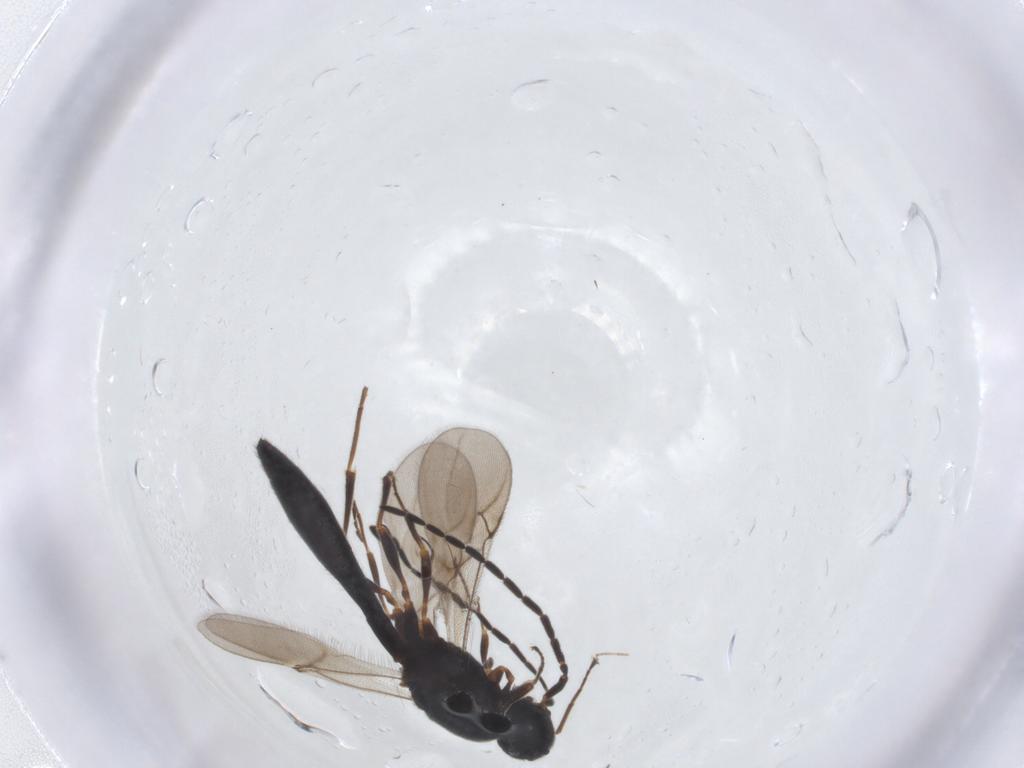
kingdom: Animalia
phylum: Arthropoda
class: Insecta
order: Hymenoptera
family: Scelionidae
